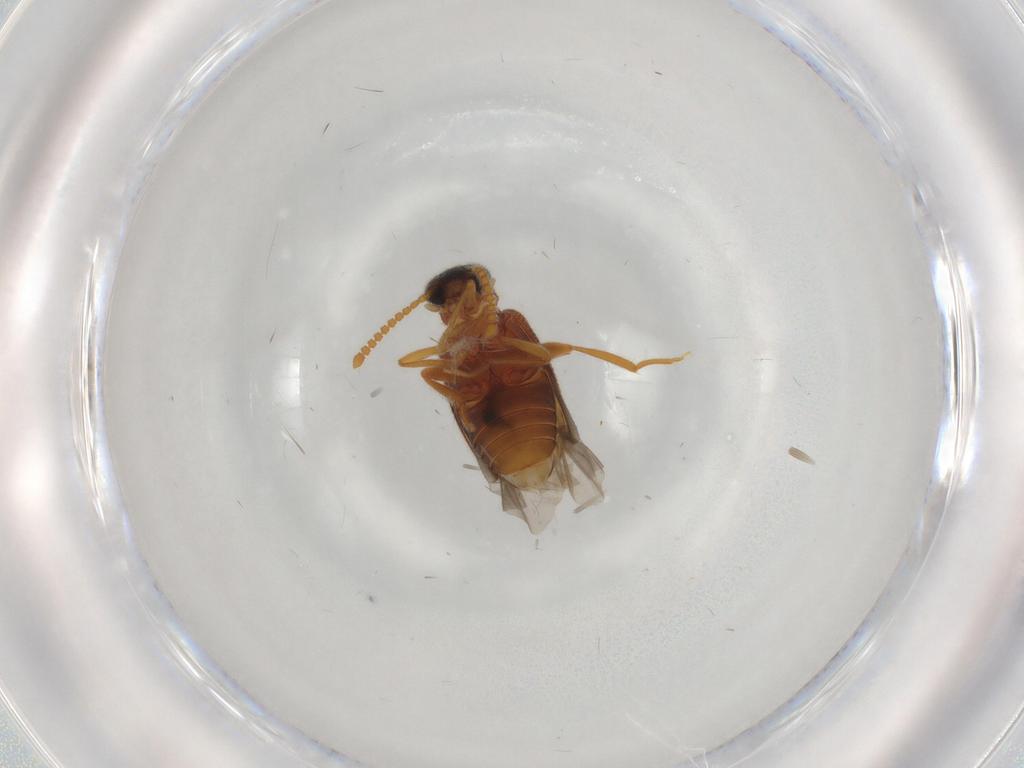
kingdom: Animalia
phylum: Arthropoda
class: Insecta
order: Coleoptera
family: Aderidae
